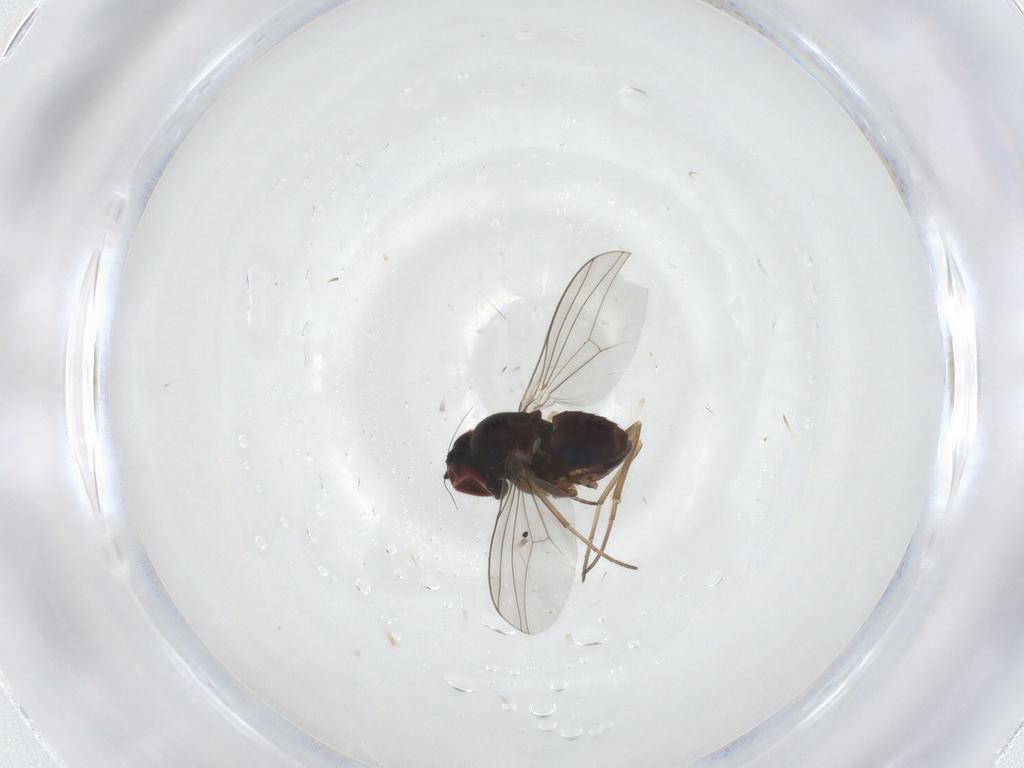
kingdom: Animalia
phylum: Arthropoda
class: Insecta
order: Diptera
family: Dolichopodidae
